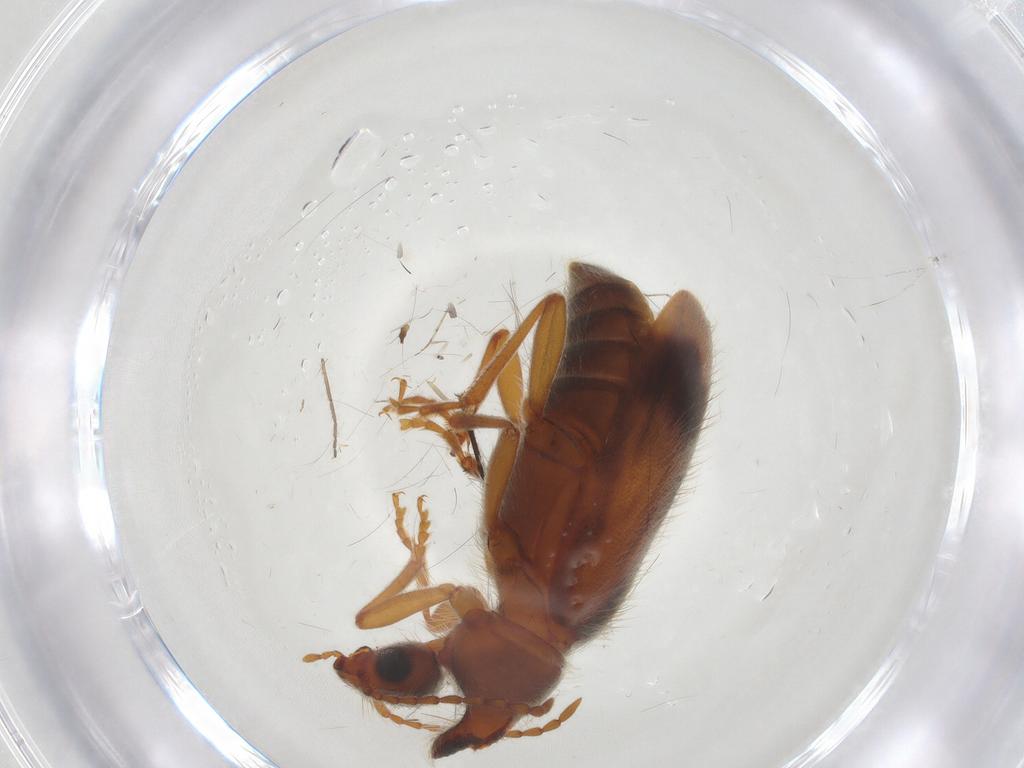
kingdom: Animalia
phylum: Arthropoda
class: Insecta
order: Coleoptera
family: Anthicidae
